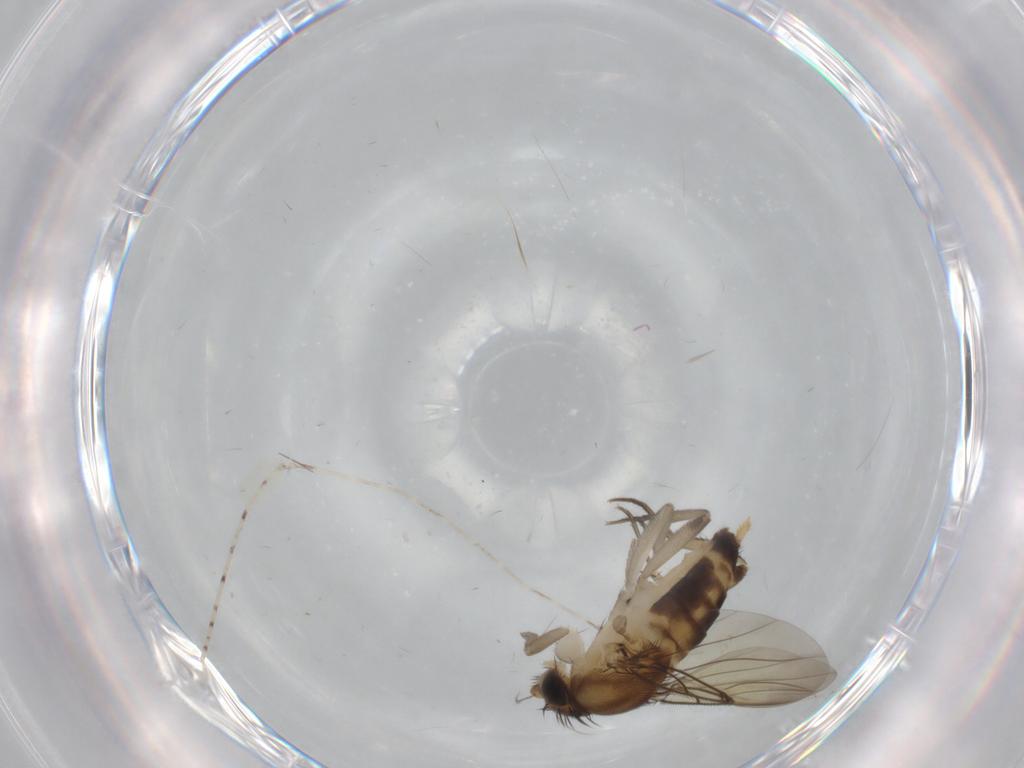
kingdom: Animalia
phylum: Arthropoda
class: Insecta
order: Diptera
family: Phoridae
